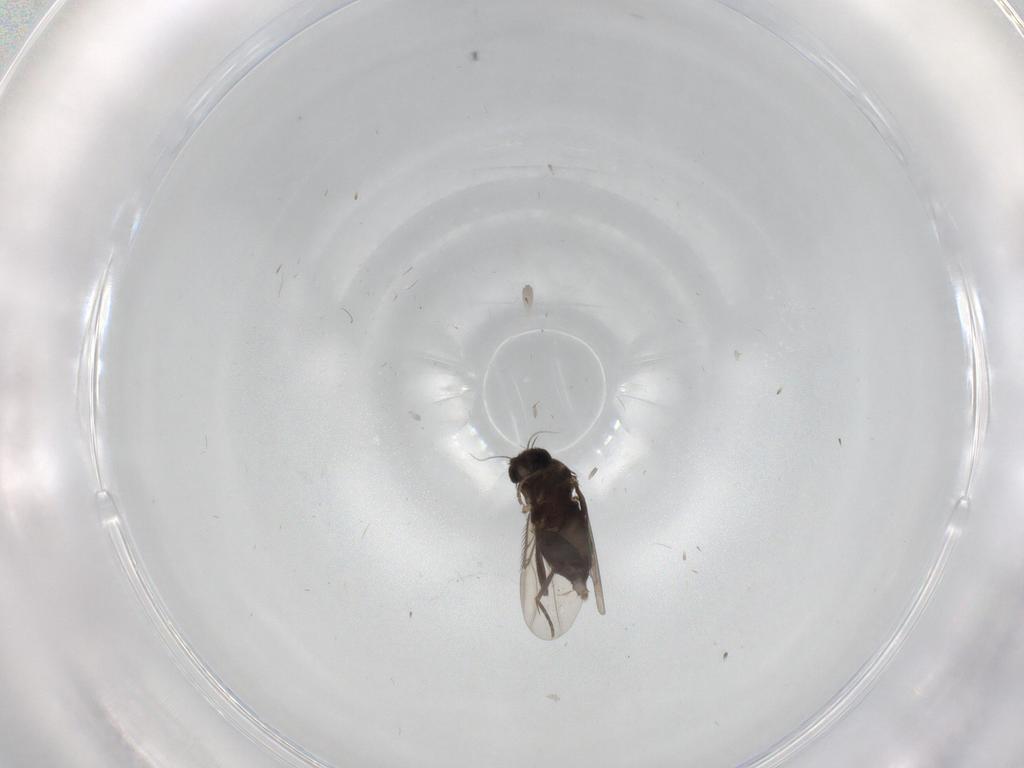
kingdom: Animalia
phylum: Arthropoda
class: Insecta
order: Diptera
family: Phoridae
